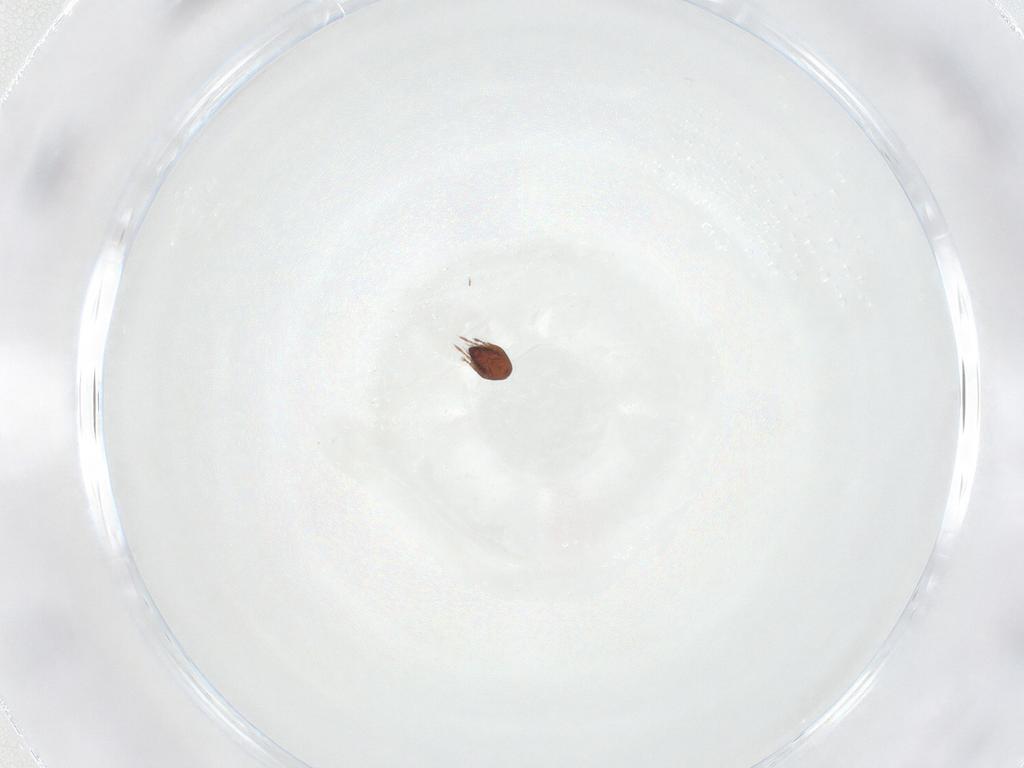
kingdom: Animalia
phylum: Arthropoda
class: Arachnida
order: Sarcoptiformes
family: Ceratozetidae
